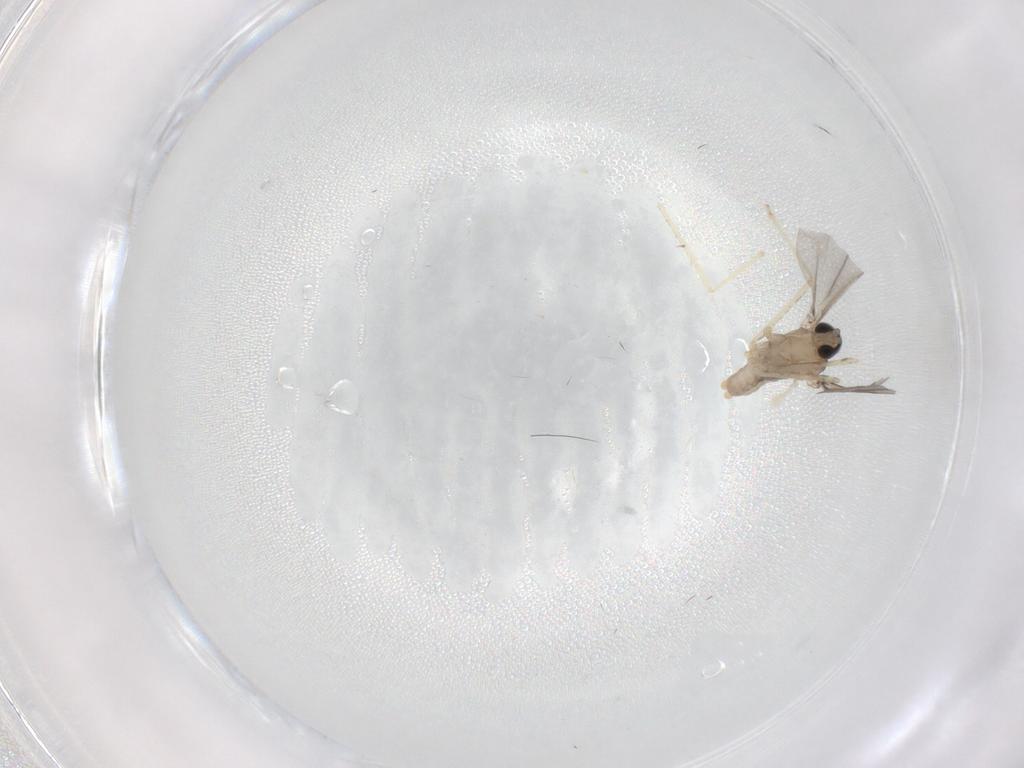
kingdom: Animalia
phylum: Arthropoda
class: Insecta
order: Diptera
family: Cecidomyiidae
